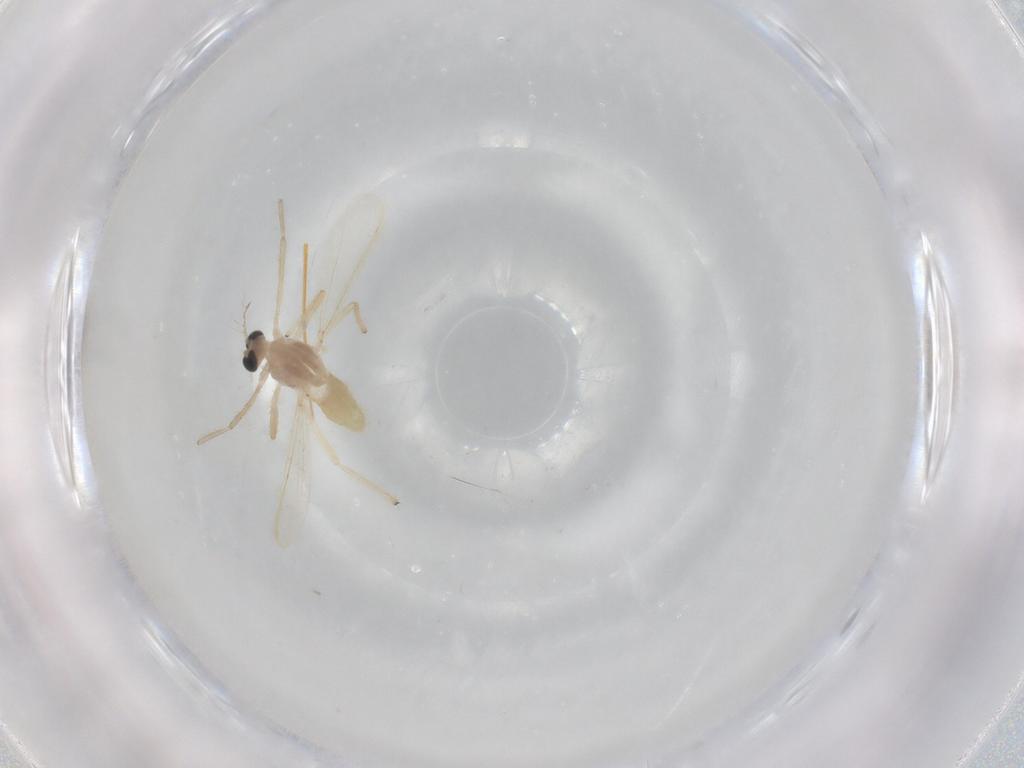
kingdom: Animalia
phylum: Arthropoda
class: Insecta
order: Diptera
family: Chironomidae
